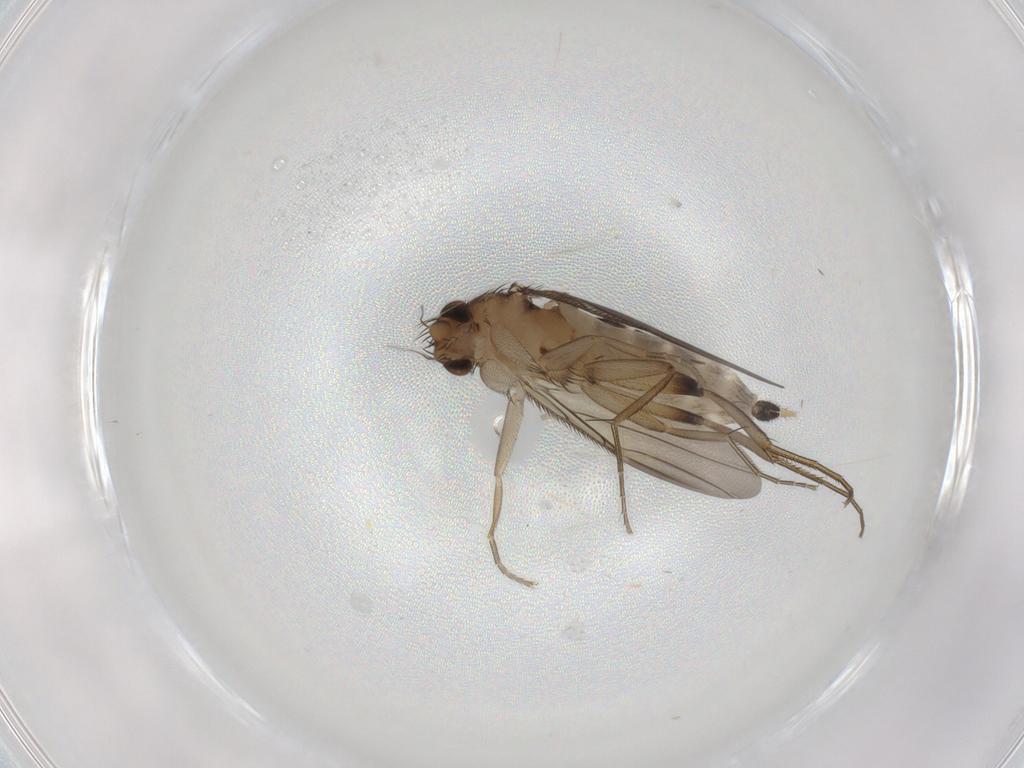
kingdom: Animalia
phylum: Arthropoda
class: Insecta
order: Diptera
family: Phoridae
